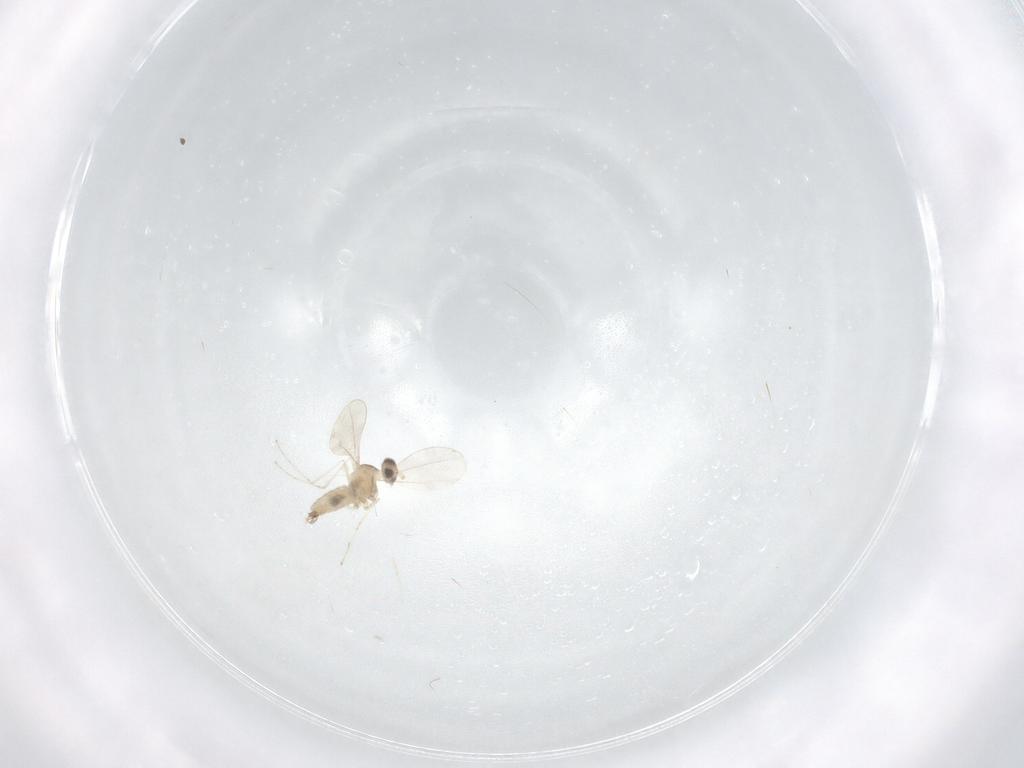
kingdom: Animalia
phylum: Arthropoda
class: Insecta
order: Diptera
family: Cecidomyiidae
